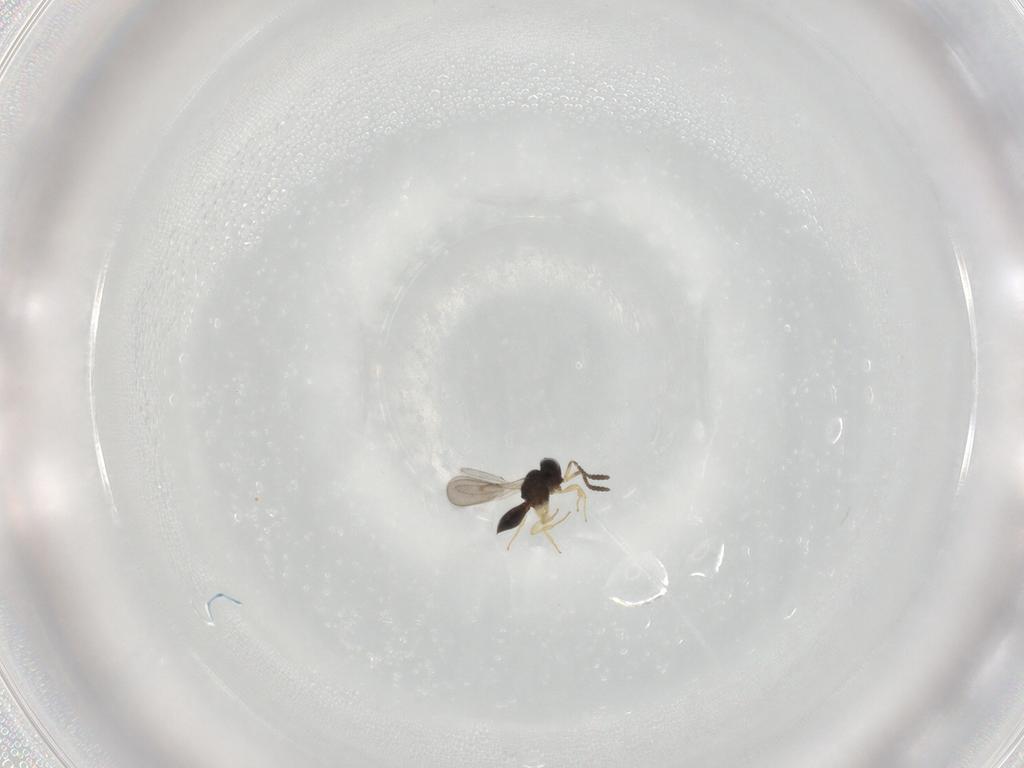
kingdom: Animalia
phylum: Arthropoda
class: Insecta
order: Hymenoptera
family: Scelionidae
